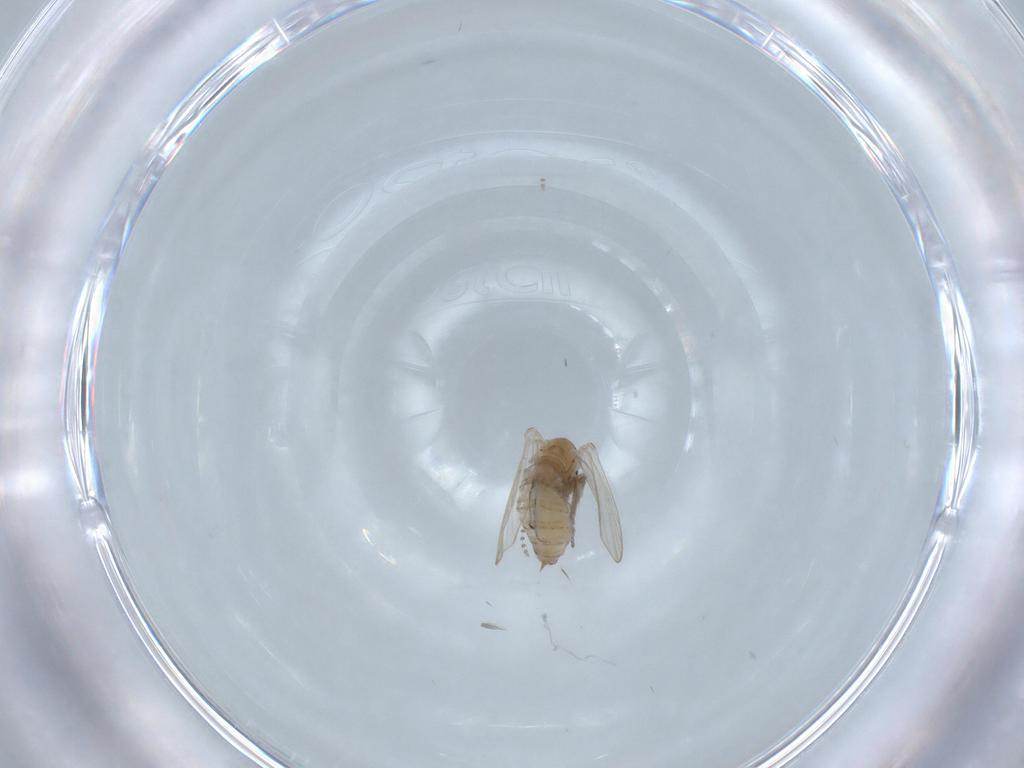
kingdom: Animalia
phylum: Arthropoda
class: Insecta
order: Diptera
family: Psychodidae
